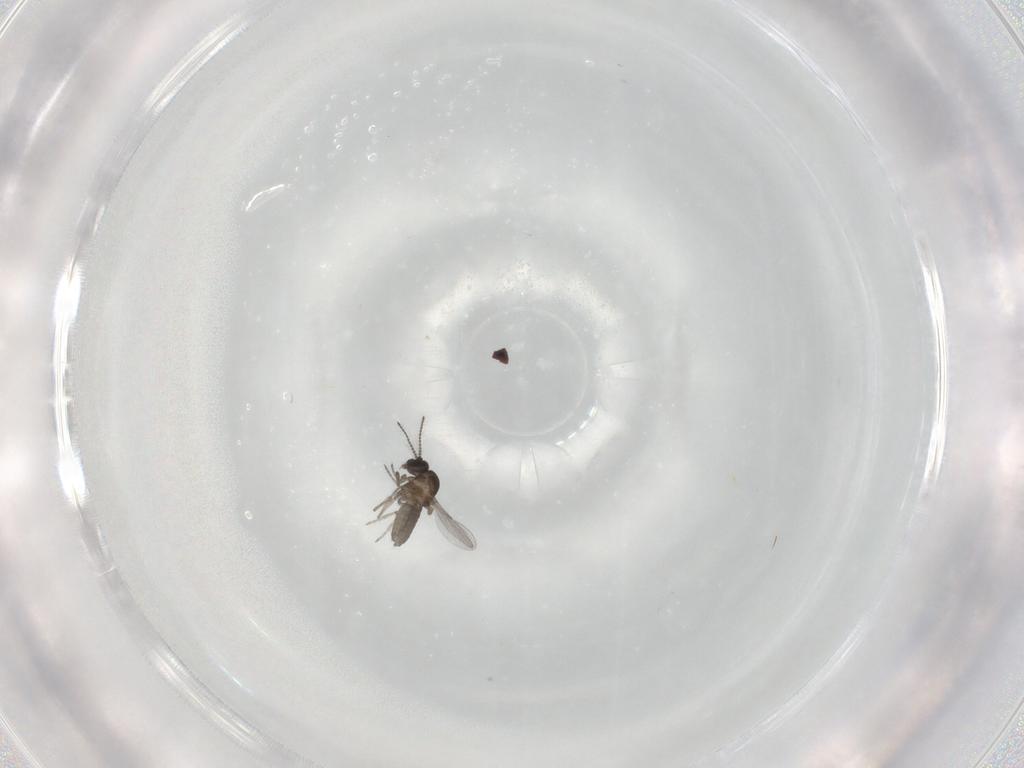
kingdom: Animalia
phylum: Arthropoda
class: Insecta
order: Diptera
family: Ceratopogonidae
